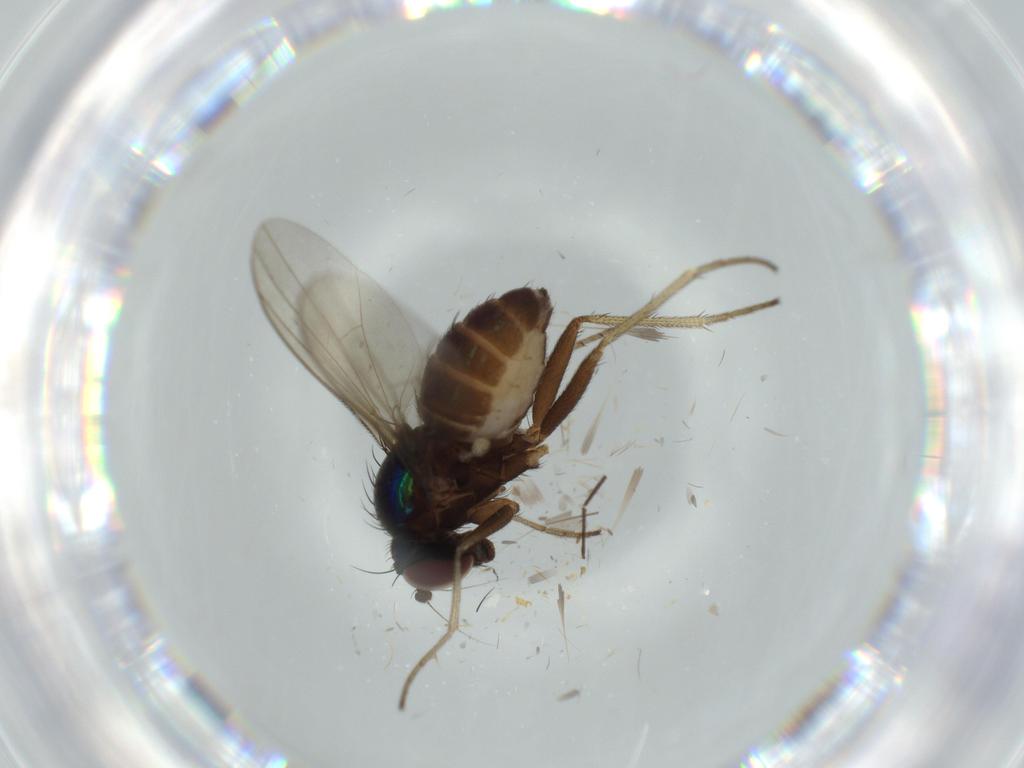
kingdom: Animalia
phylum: Arthropoda
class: Insecta
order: Diptera
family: Dolichopodidae
